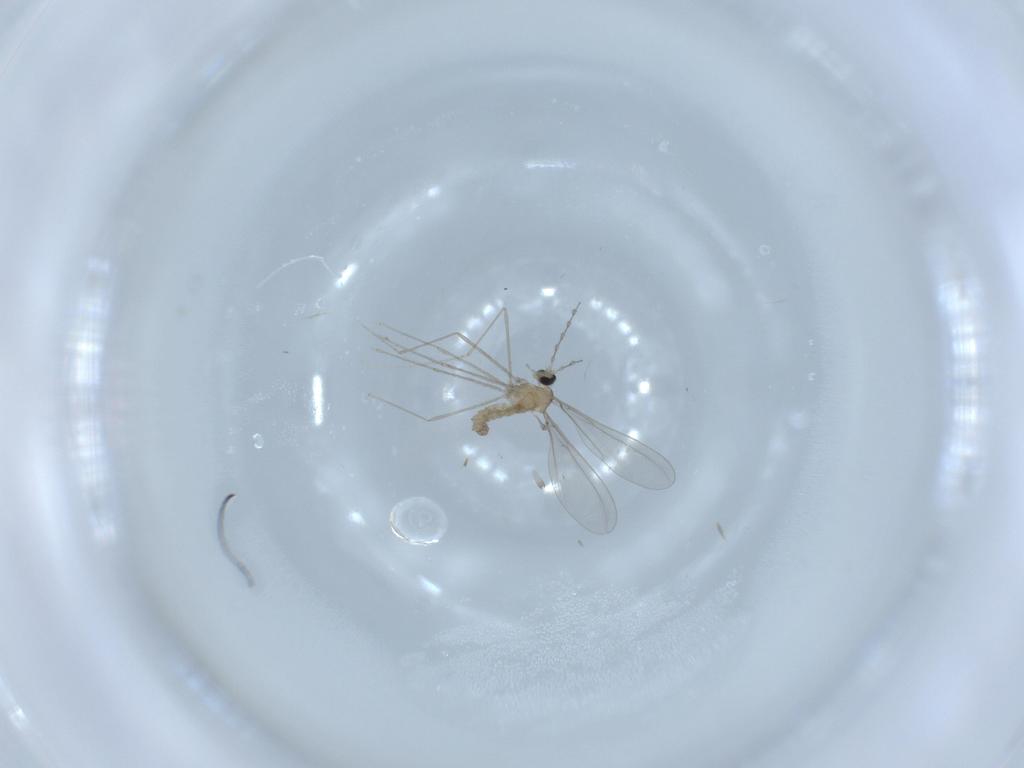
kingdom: Animalia
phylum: Arthropoda
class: Insecta
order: Diptera
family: Cecidomyiidae
